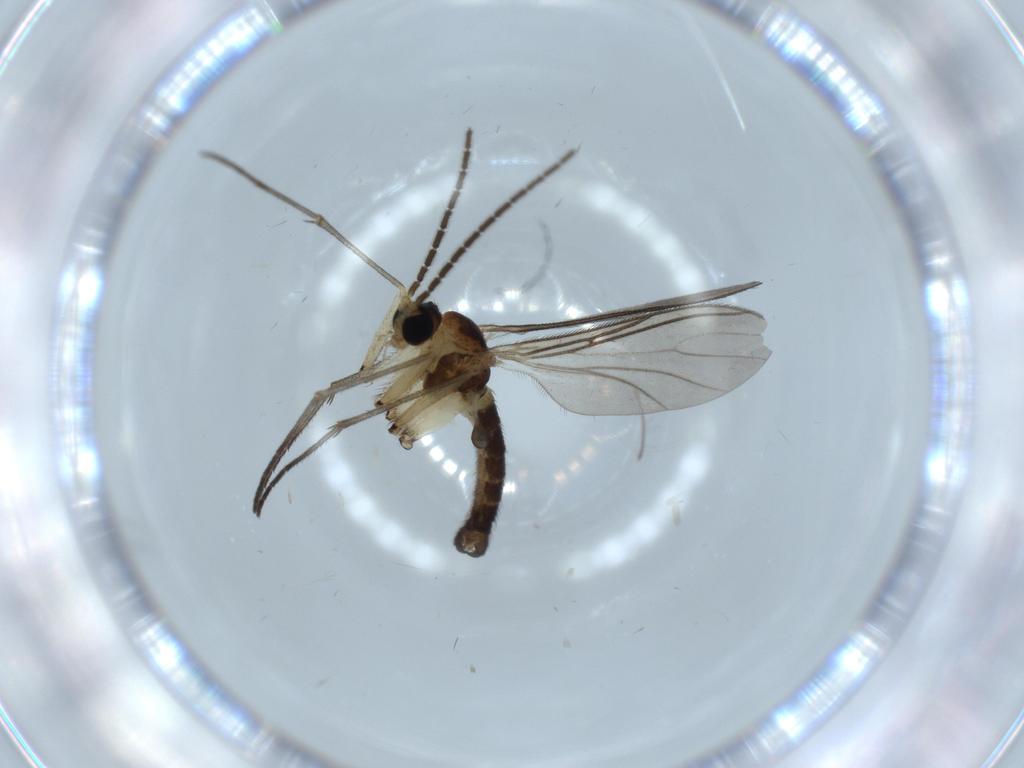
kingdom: Animalia
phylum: Arthropoda
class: Insecta
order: Diptera
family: Sciaridae
